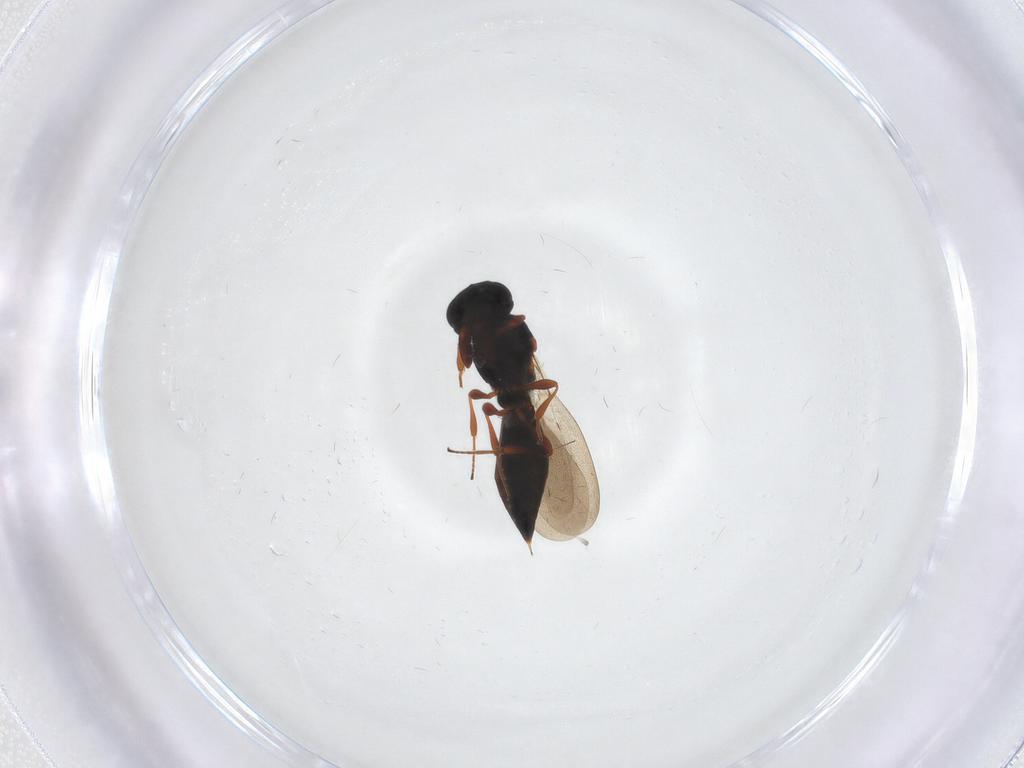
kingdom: Animalia
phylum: Arthropoda
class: Insecta
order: Hymenoptera
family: Platygastridae
